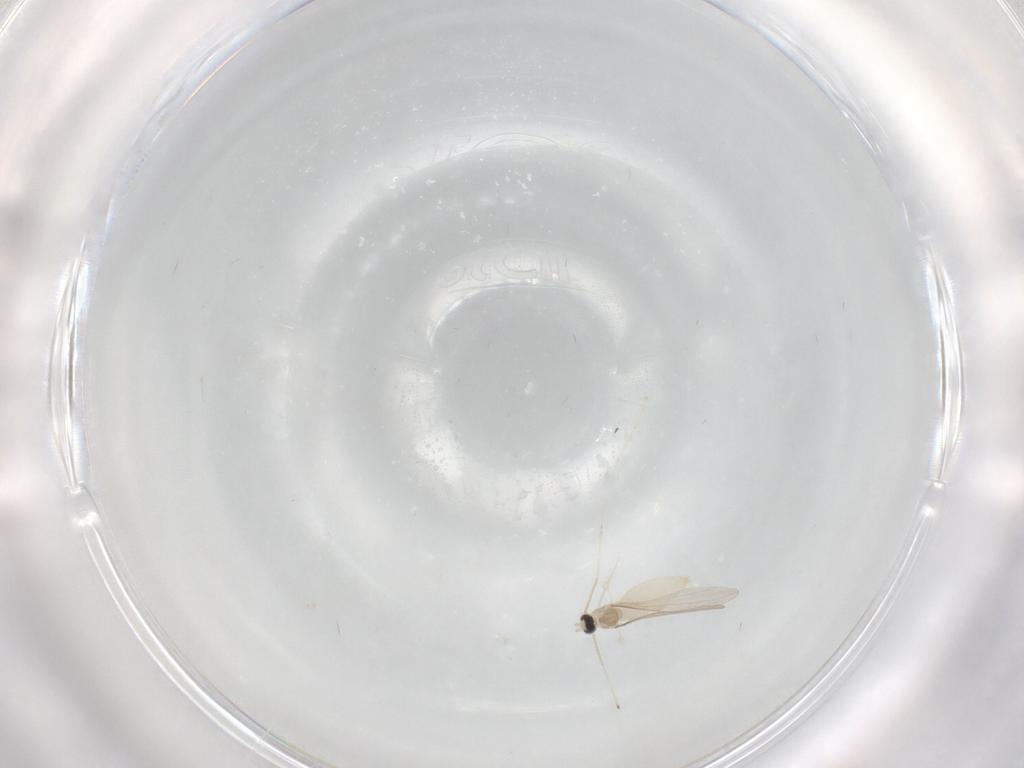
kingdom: Animalia
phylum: Arthropoda
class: Insecta
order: Diptera
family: Cecidomyiidae
